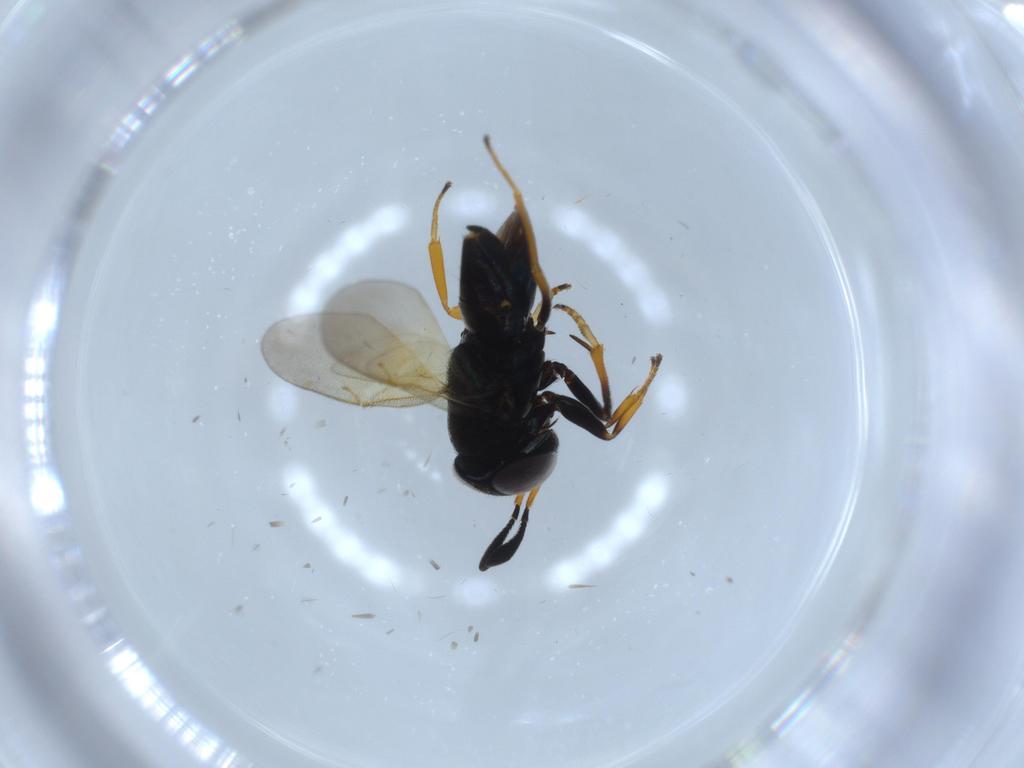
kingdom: Animalia
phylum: Arthropoda
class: Insecta
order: Hymenoptera
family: Encyrtidae
